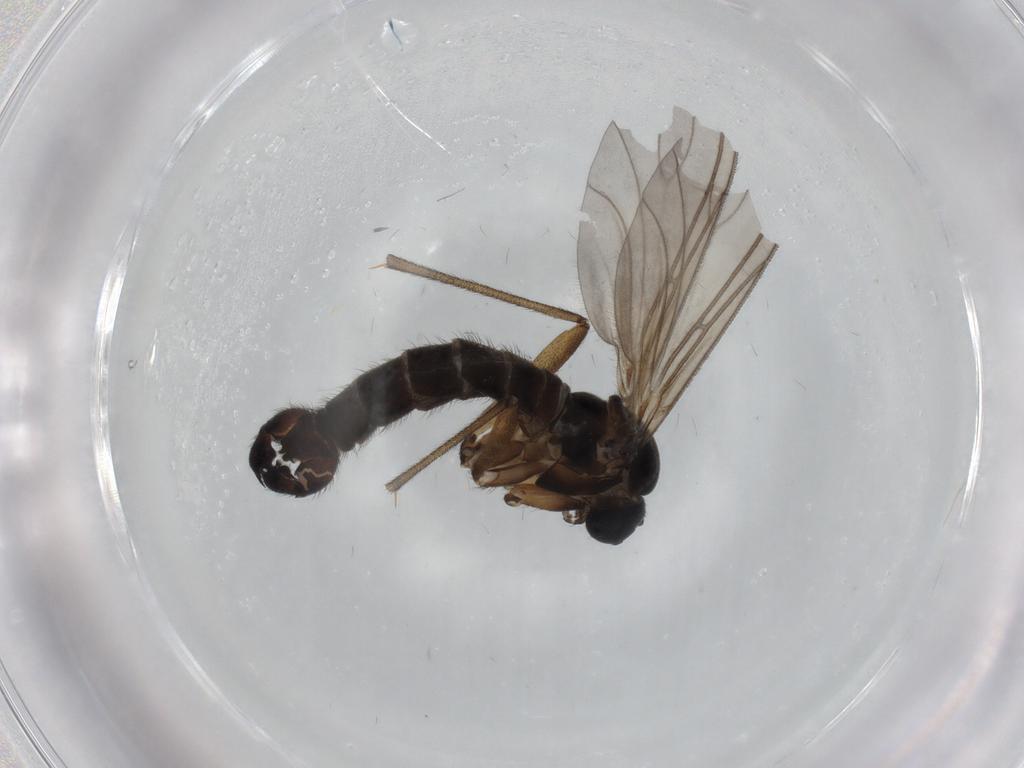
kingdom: Animalia
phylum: Arthropoda
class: Insecta
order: Diptera
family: Sciaridae
